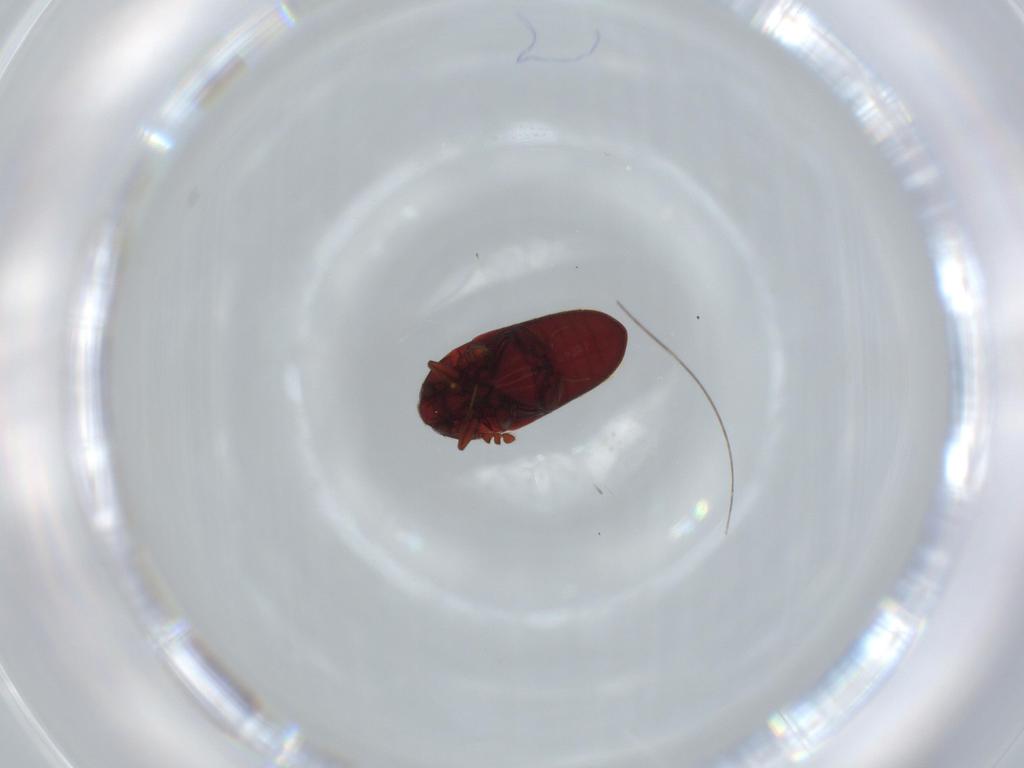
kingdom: Animalia
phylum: Arthropoda
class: Insecta
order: Coleoptera
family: Throscidae
